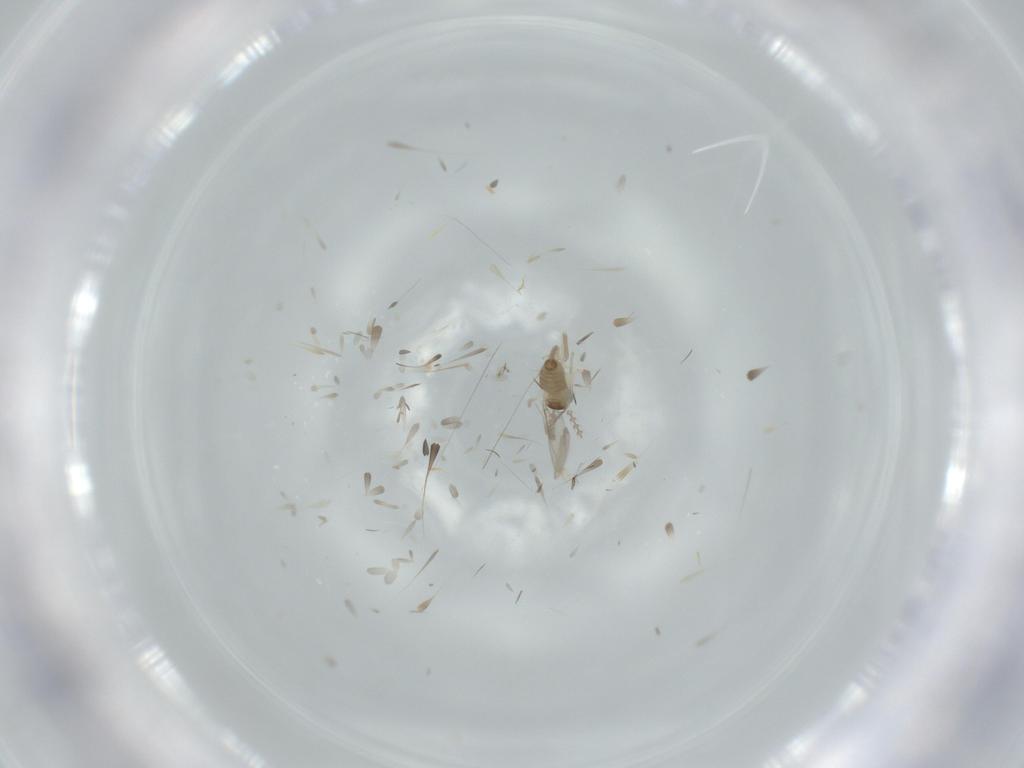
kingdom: Animalia
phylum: Arthropoda
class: Insecta
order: Diptera
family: Cecidomyiidae
